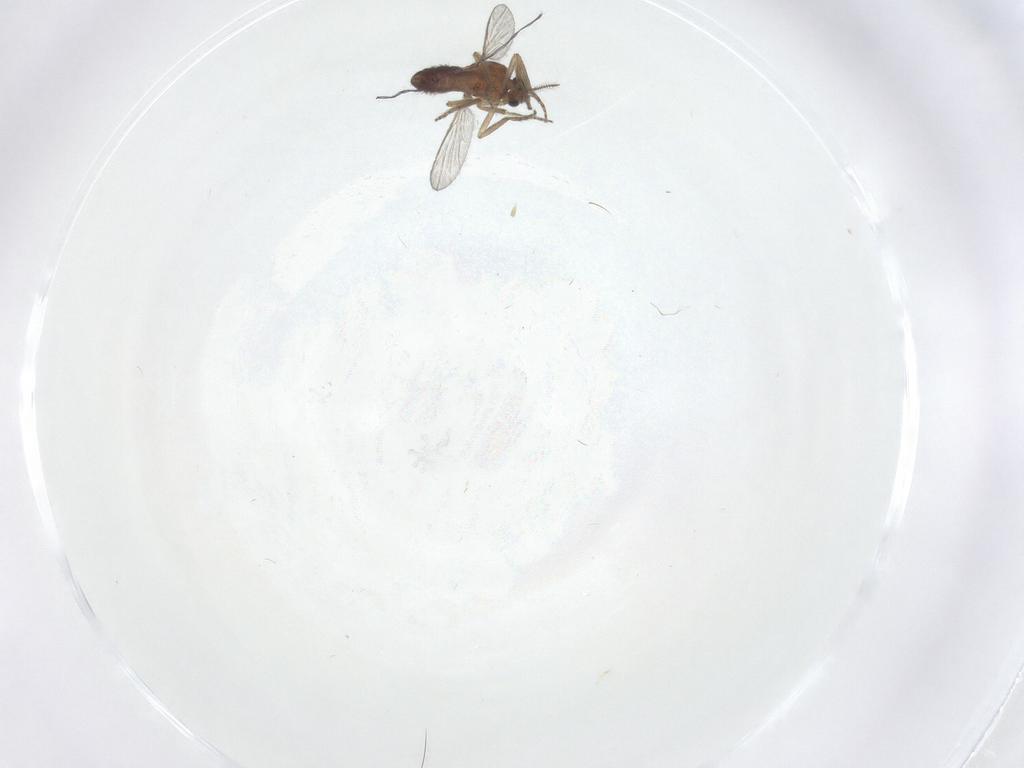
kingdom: Animalia
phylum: Arthropoda
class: Insecta
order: Diptera
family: Ceratopogonidae
